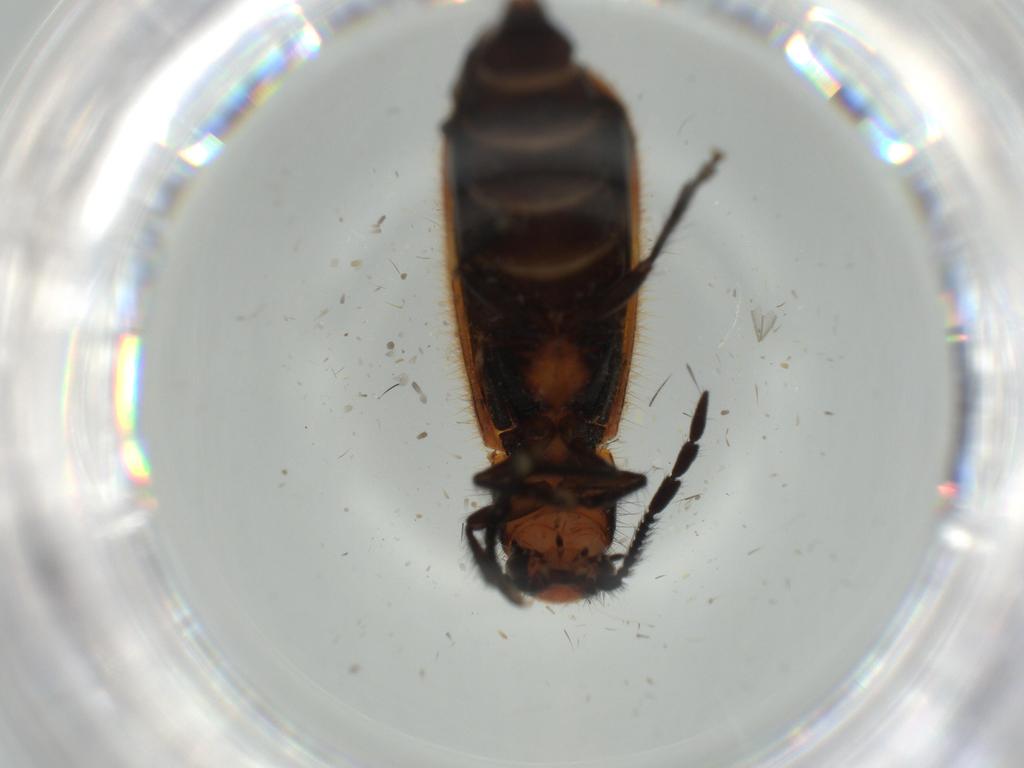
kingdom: Animalia
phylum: Arthropoda
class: Insecta
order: Coleoptera
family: Cleridae
